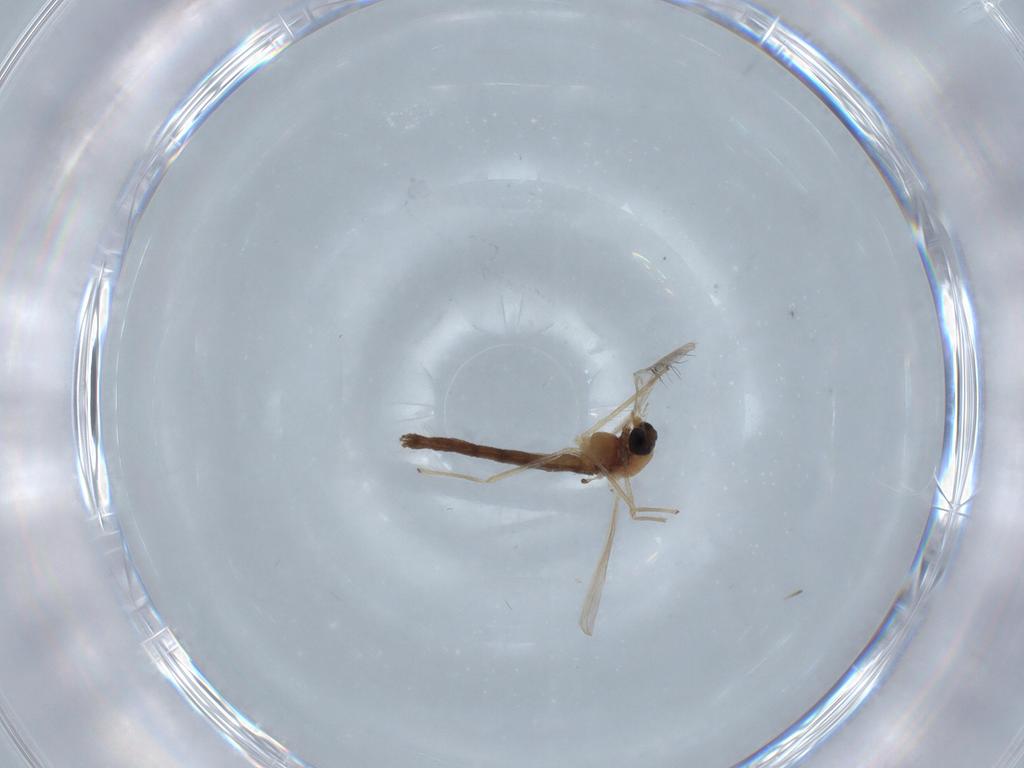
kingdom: Animalia
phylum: Arthropoda
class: Insecta
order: Diptera
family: Sphaeroceridae
